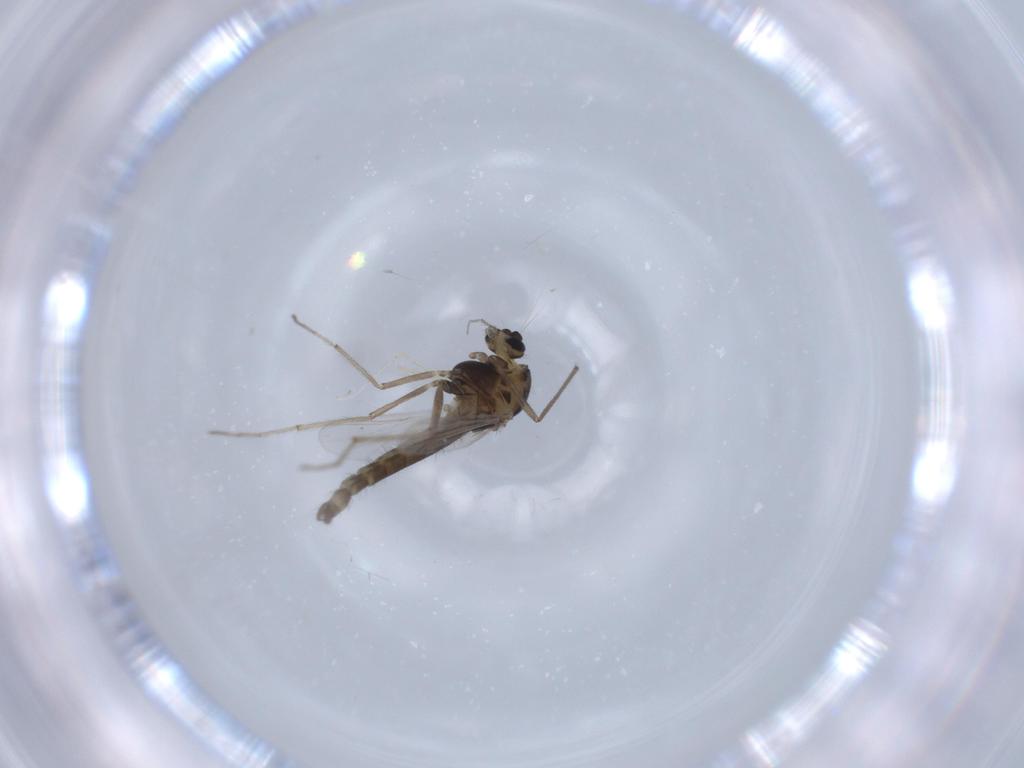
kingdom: Animalia
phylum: Arthropoda
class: Insecta
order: Diptera
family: Chironomidae
